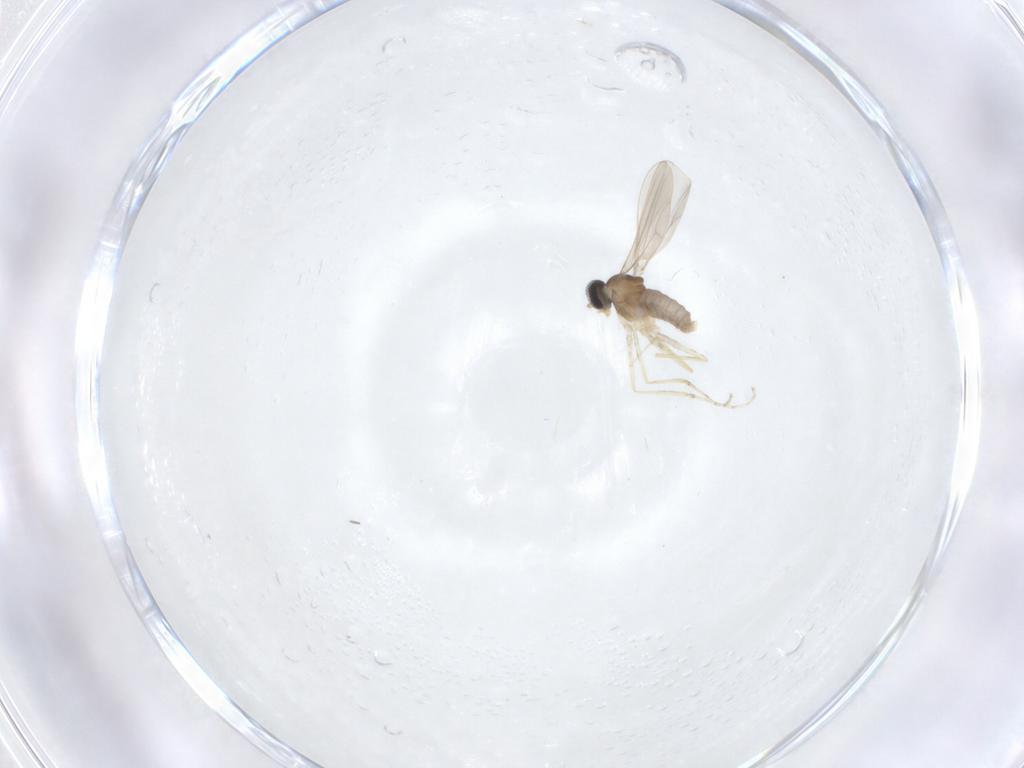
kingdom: Animalia
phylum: Arthropoda
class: Insecta
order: Diptera
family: Cecidomyiidae
